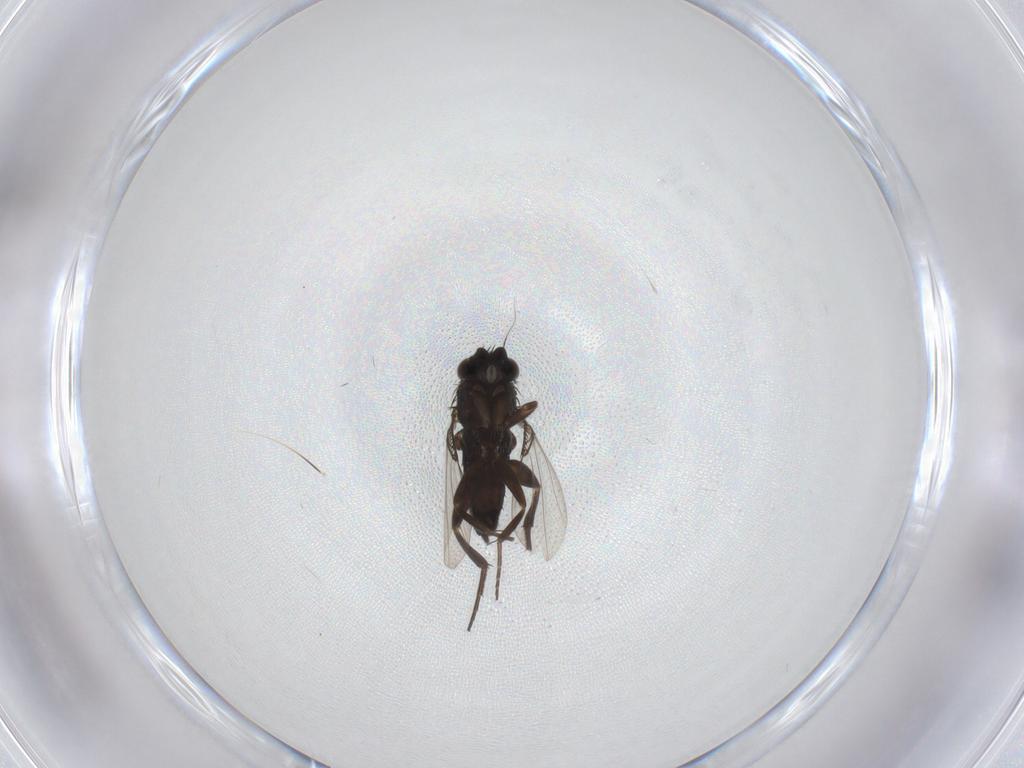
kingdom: Animalia
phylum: Arthropoda
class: Insecta
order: Diptera
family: Anthomyiidae
